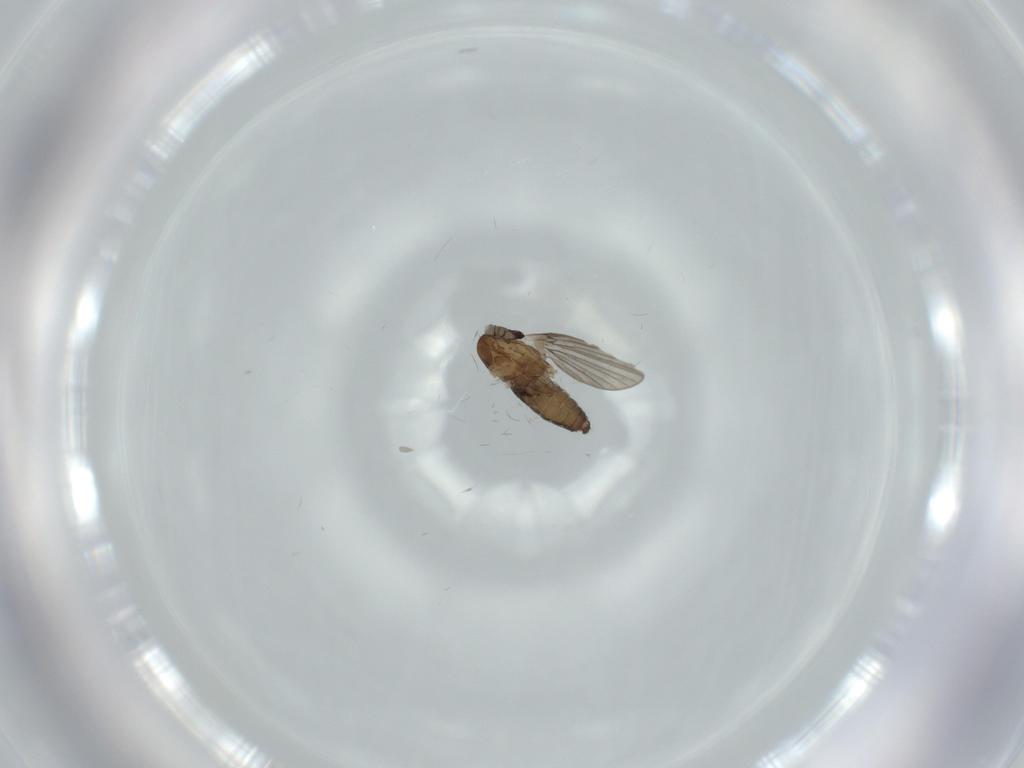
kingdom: Animalia
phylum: Arthropoda
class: Insecta
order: Diptera
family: Psychodidae
